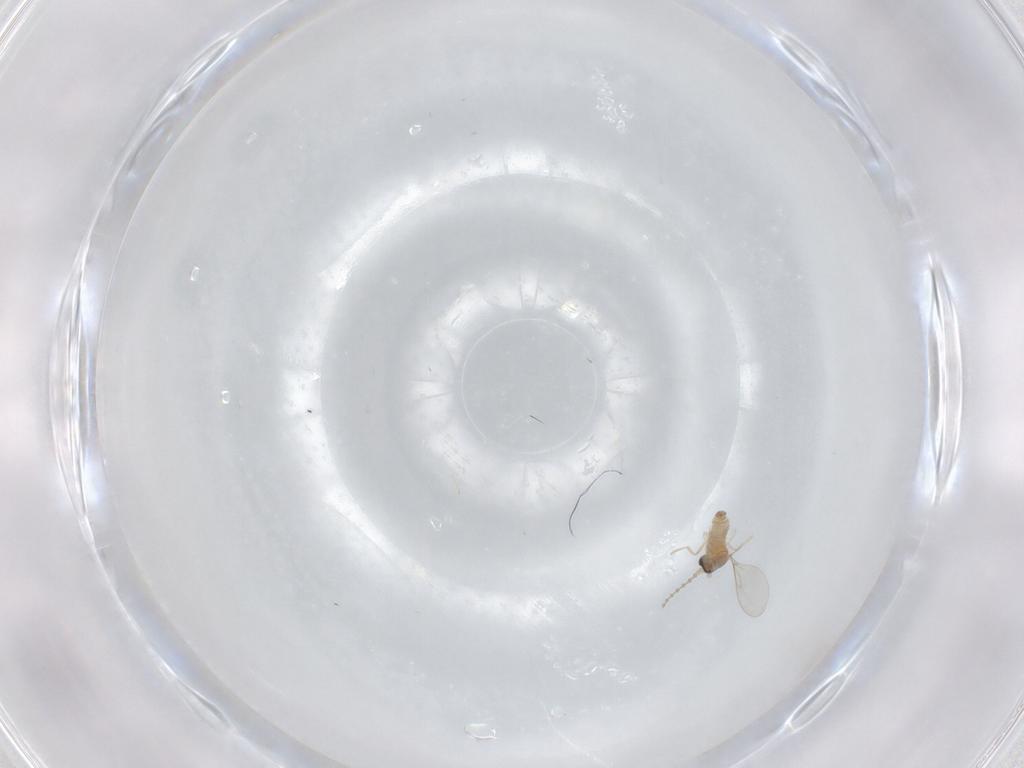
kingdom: Animalia
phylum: Arthropoda
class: Insecta
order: Diptera
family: Cecidomyiidae
